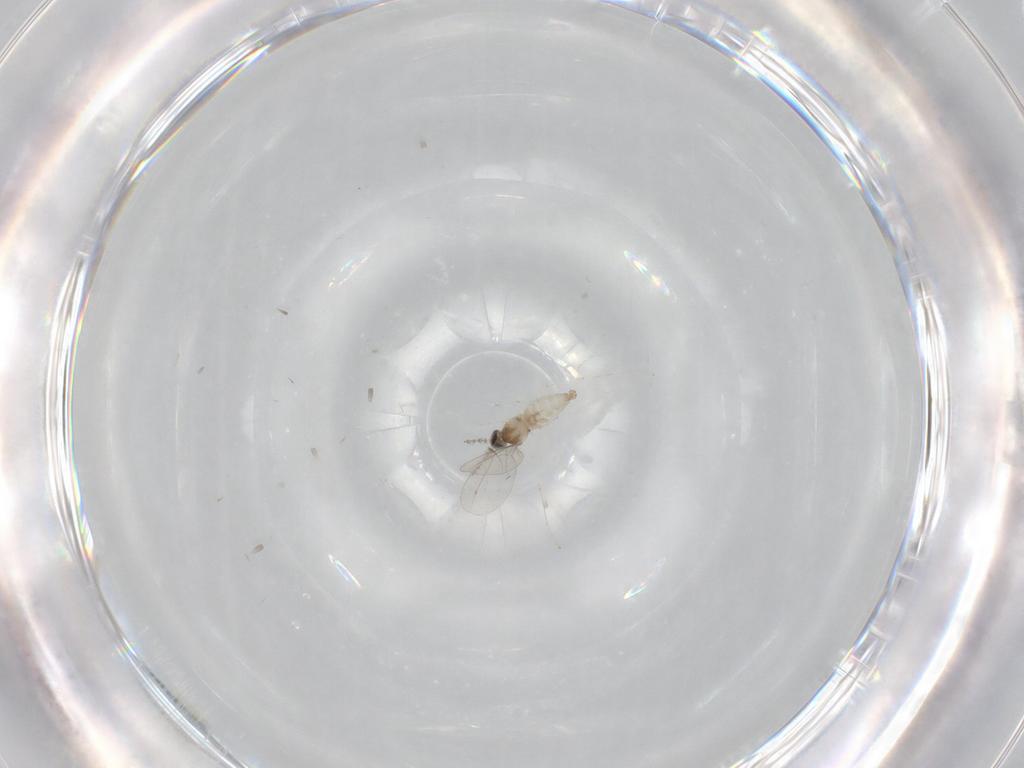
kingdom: Animalia
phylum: Arthropoda
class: Insecta
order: Diptera
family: Cecidomyiidae
